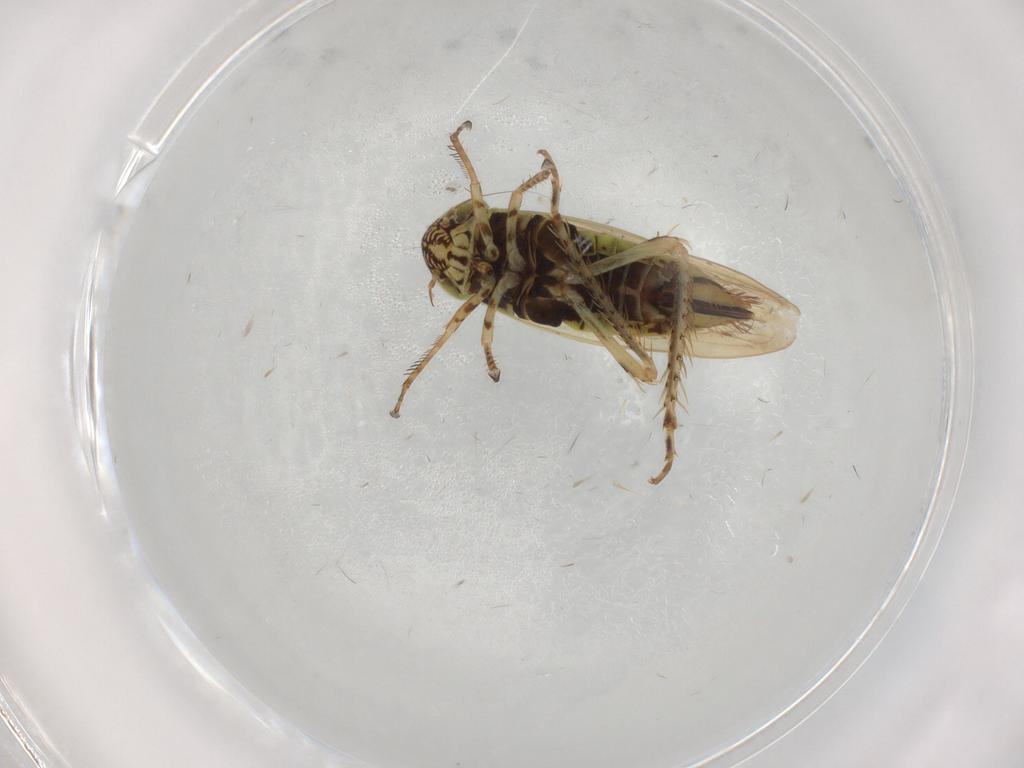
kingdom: Animalia
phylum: Arthropoda
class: Insecta
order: Hemiptera
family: Cicadellidae
